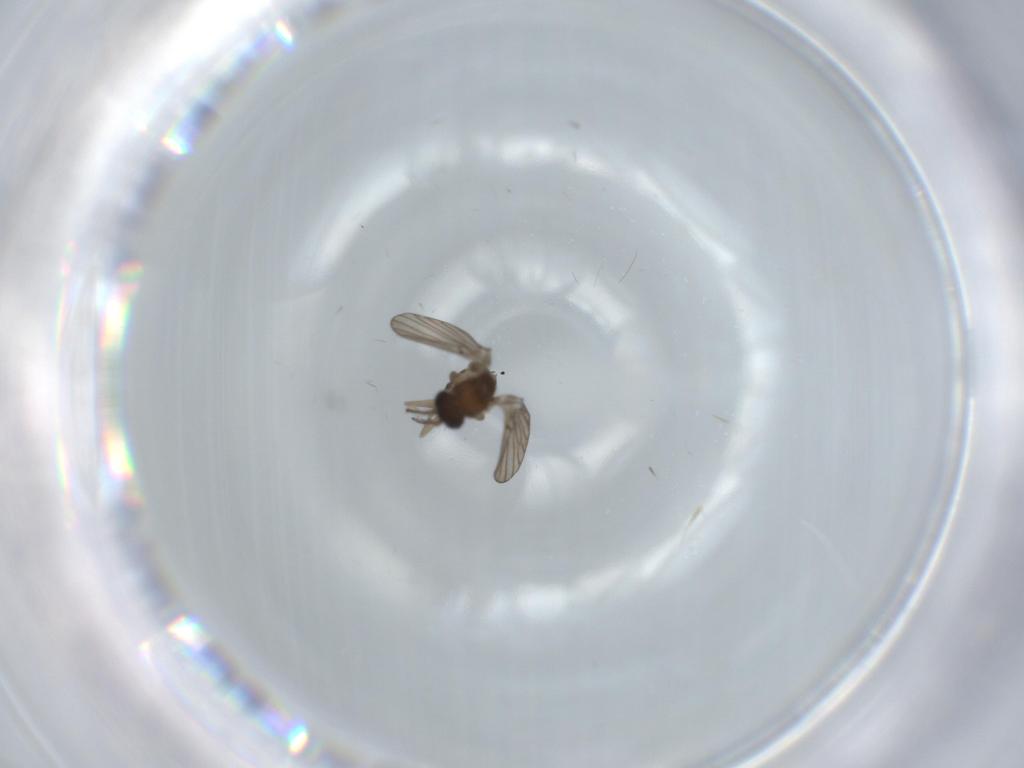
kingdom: Animalia
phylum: Arthropoda
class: Insecta
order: Diptera
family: Psychodidae
